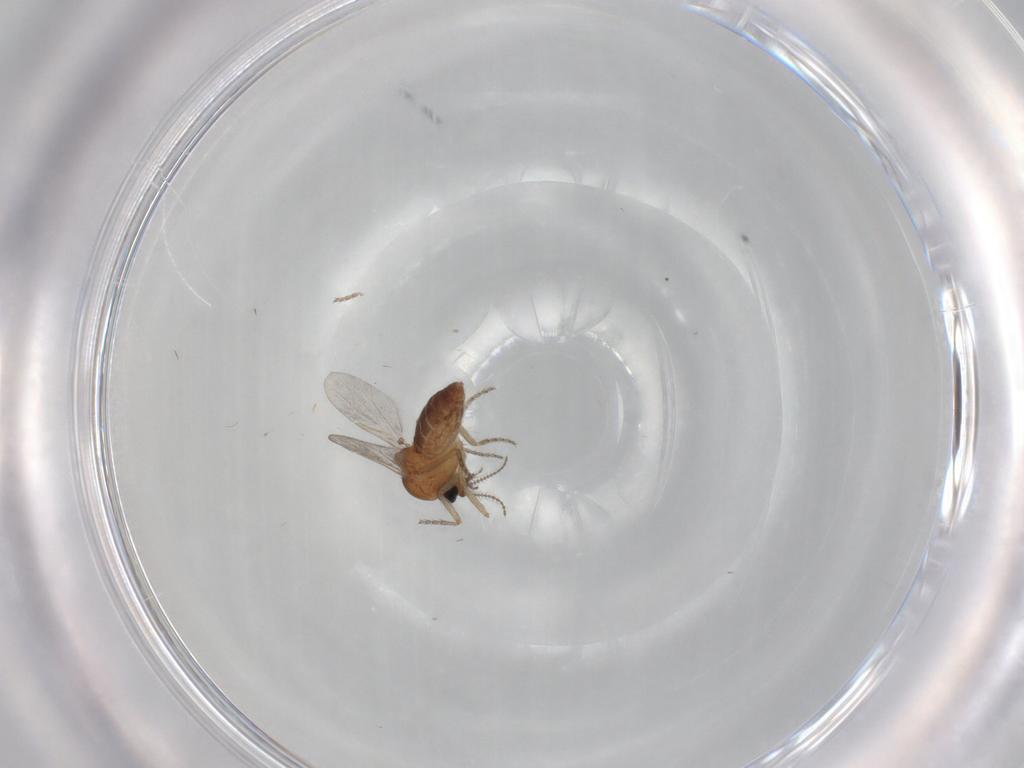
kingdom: Animalia
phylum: Arthropoda
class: Insecta
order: Diptera
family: Ceratopogonidae
